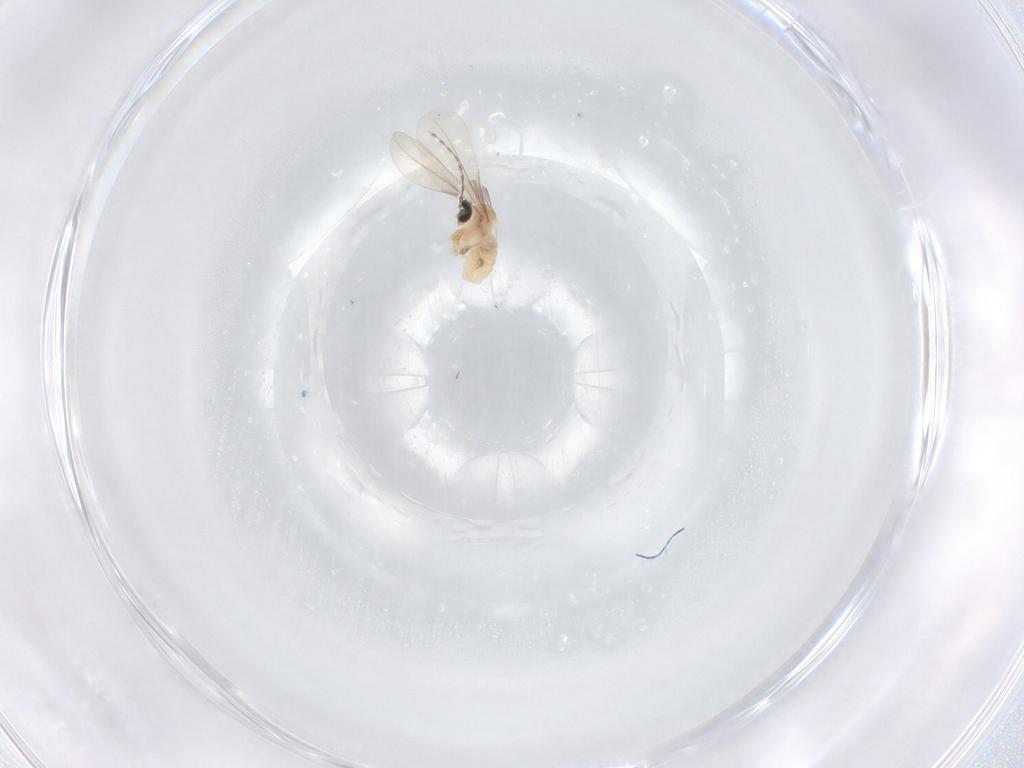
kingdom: Animalia
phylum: Arthropoda
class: Insecta
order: Diptera
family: Cecidomyiidae
